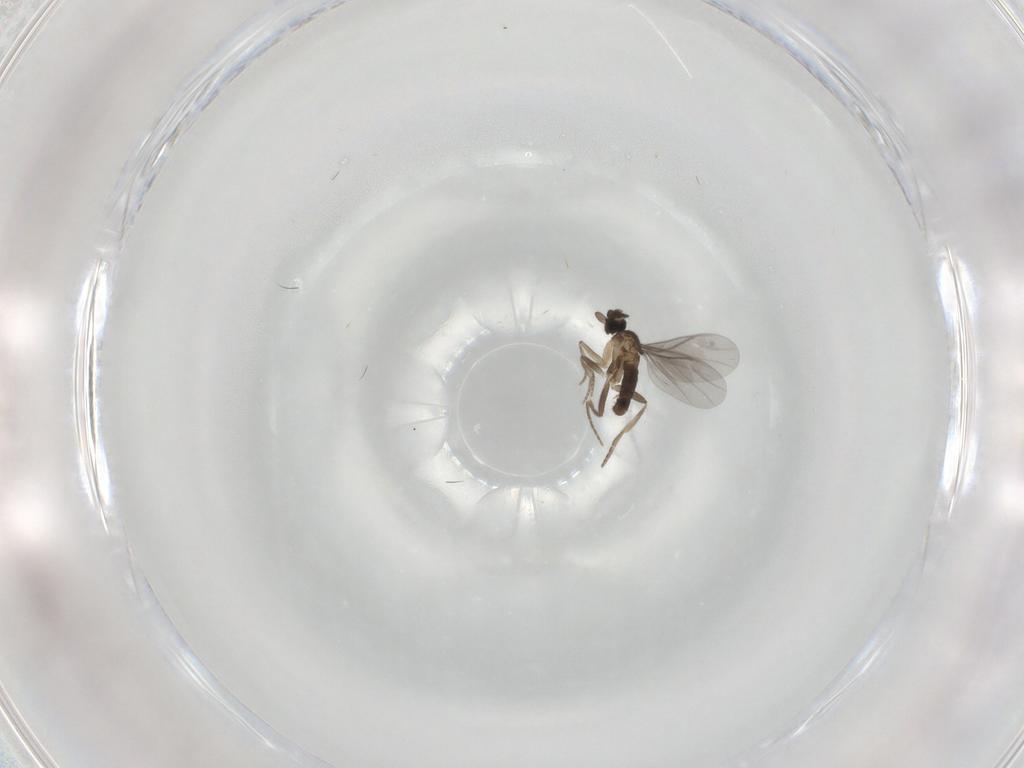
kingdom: Animalia
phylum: Arthropoda
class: Insecta
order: Diptera
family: Limoniidae
